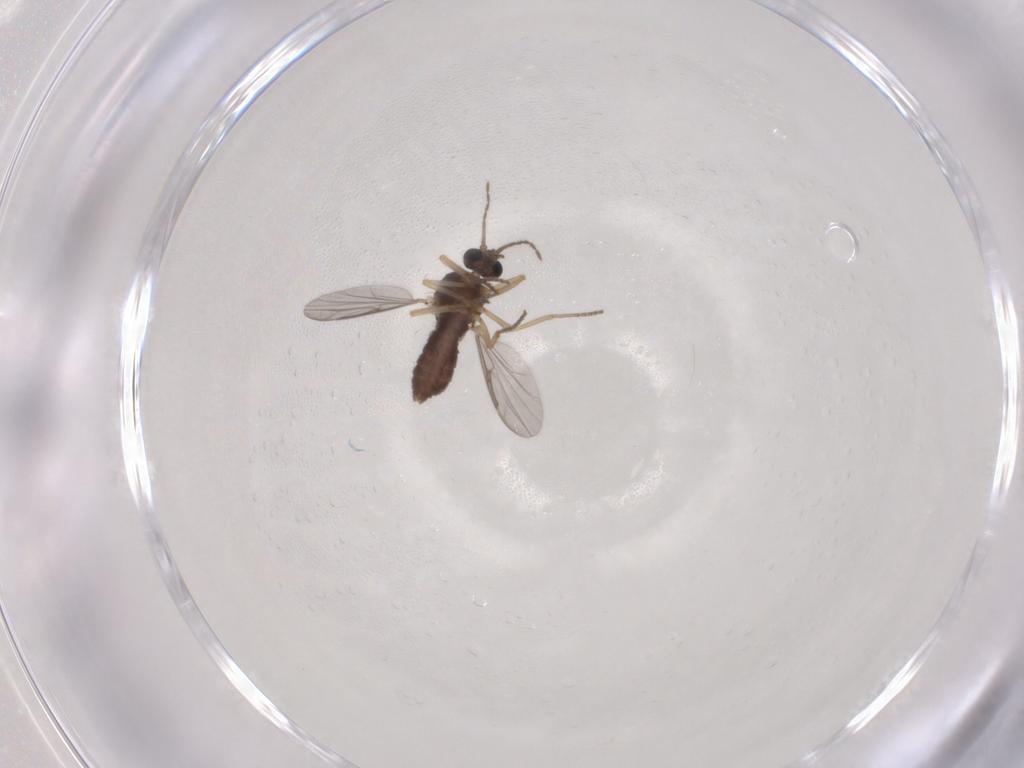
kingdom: Animalia
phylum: Arthropoda
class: Insecta
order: Diptera
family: Ceratopogonidae
